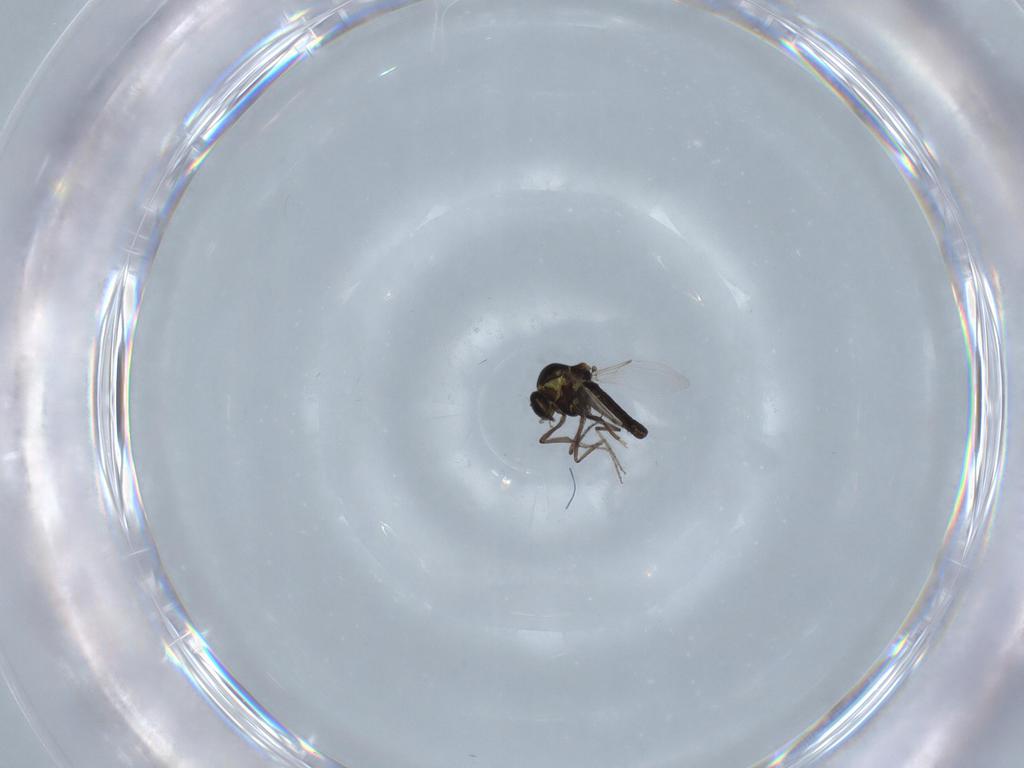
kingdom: Animalia
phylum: Arthropoda
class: Insecta
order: Diptera
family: Ceratopogonidae
